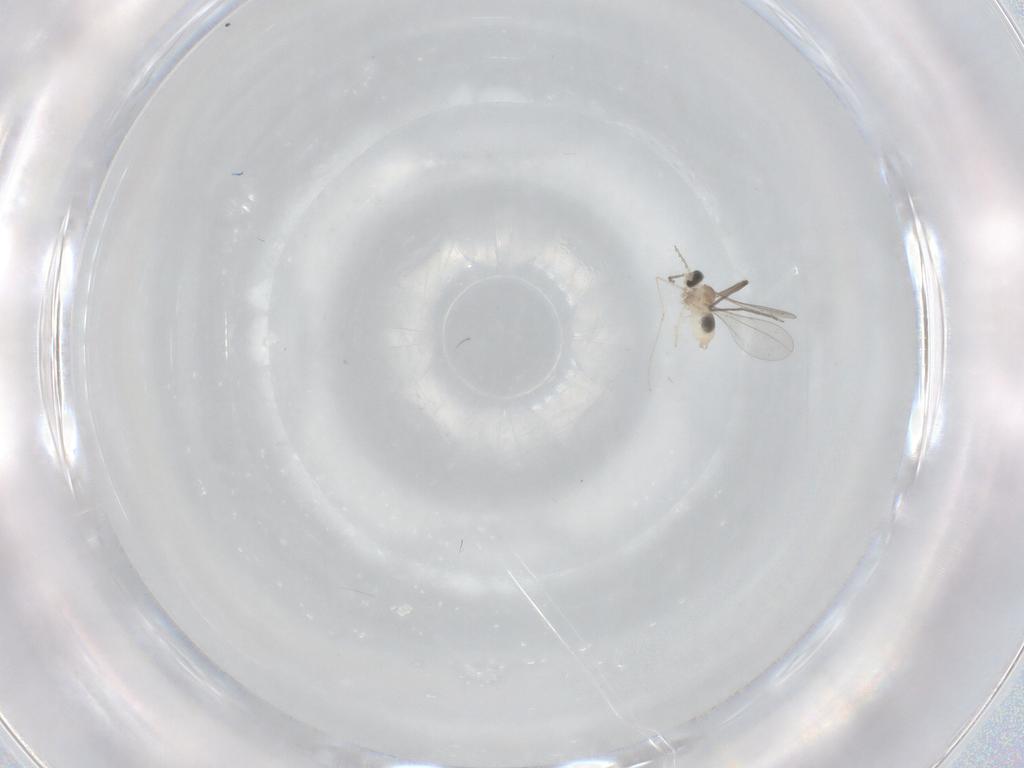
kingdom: Animalia
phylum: Arthropoda
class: Insecta
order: Diptera
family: Cecidomyiidae
